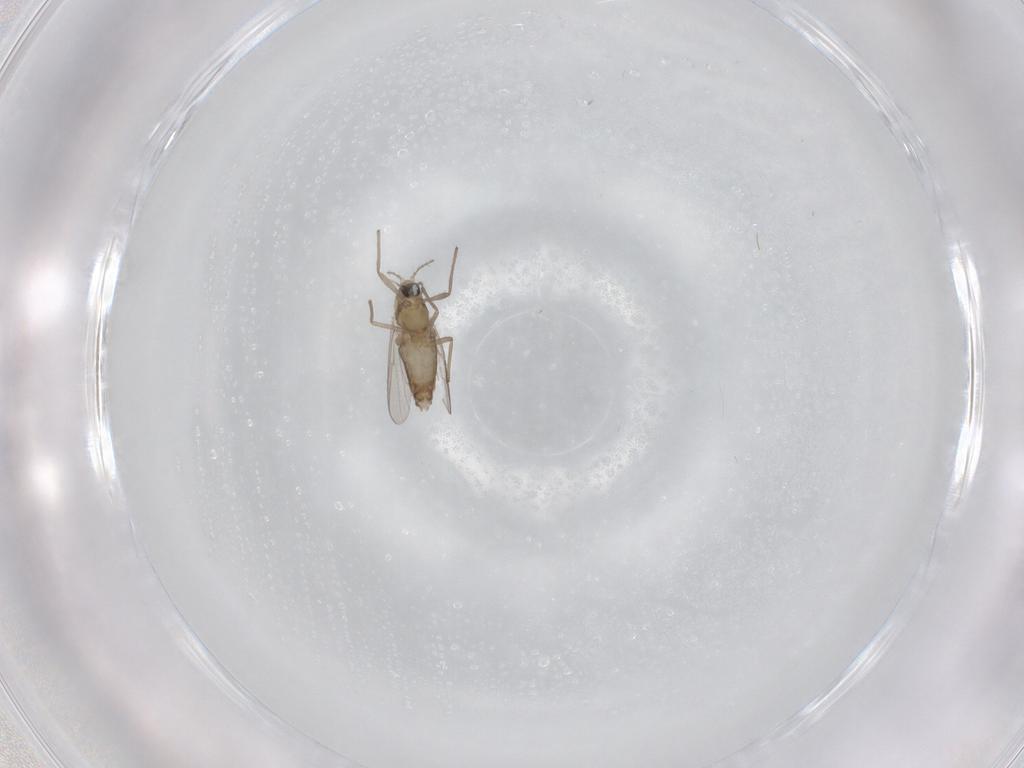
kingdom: Animalia
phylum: Arthropoda
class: Insecta
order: Diptera
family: Chironomidae
